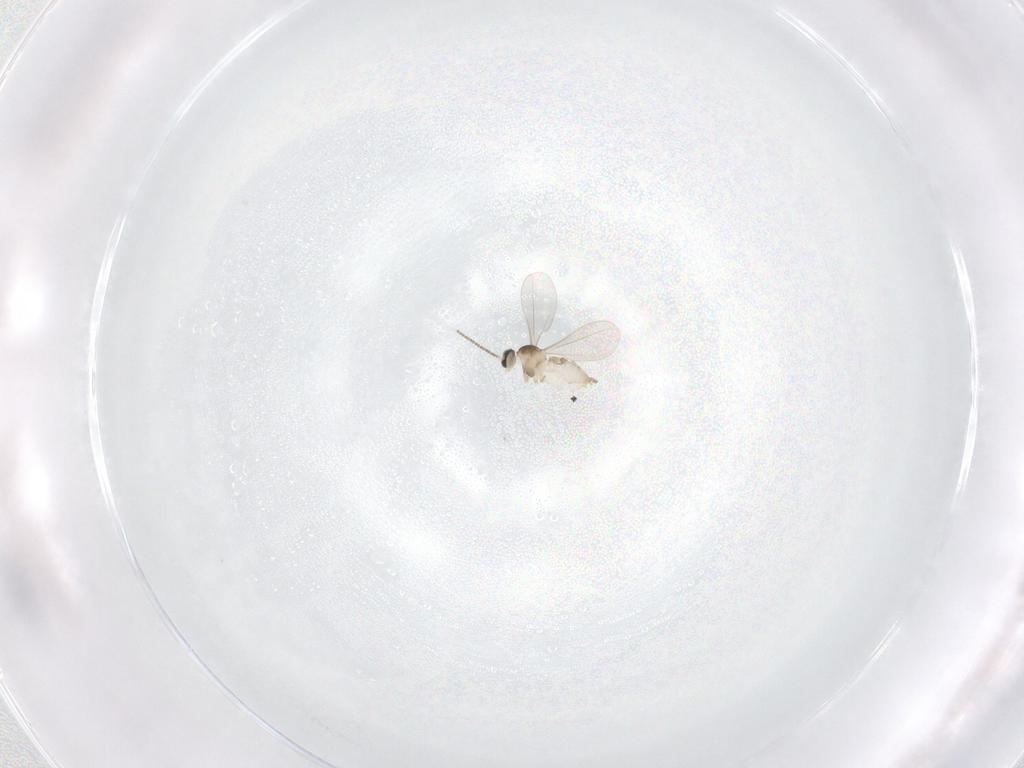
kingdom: Animalia
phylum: Arthropoda
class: Insecta
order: Diptera
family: Cecidomyiidae
